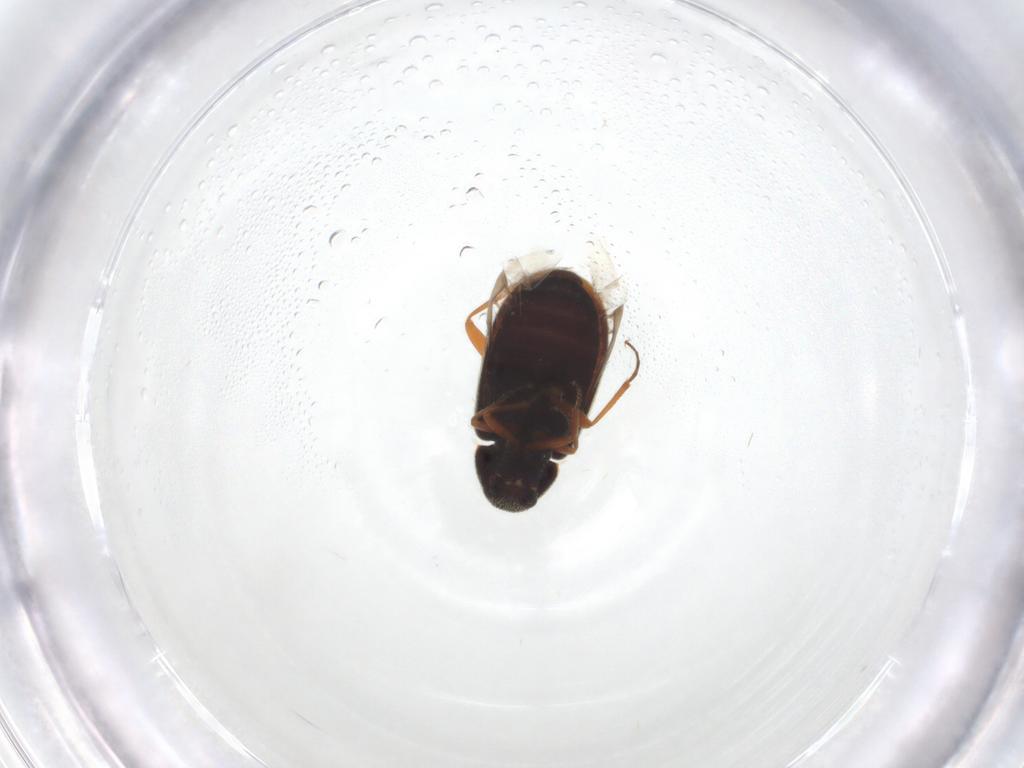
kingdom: Animalia
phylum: Arthropoda
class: Insecta
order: Coleoptera
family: Rhadalidae
